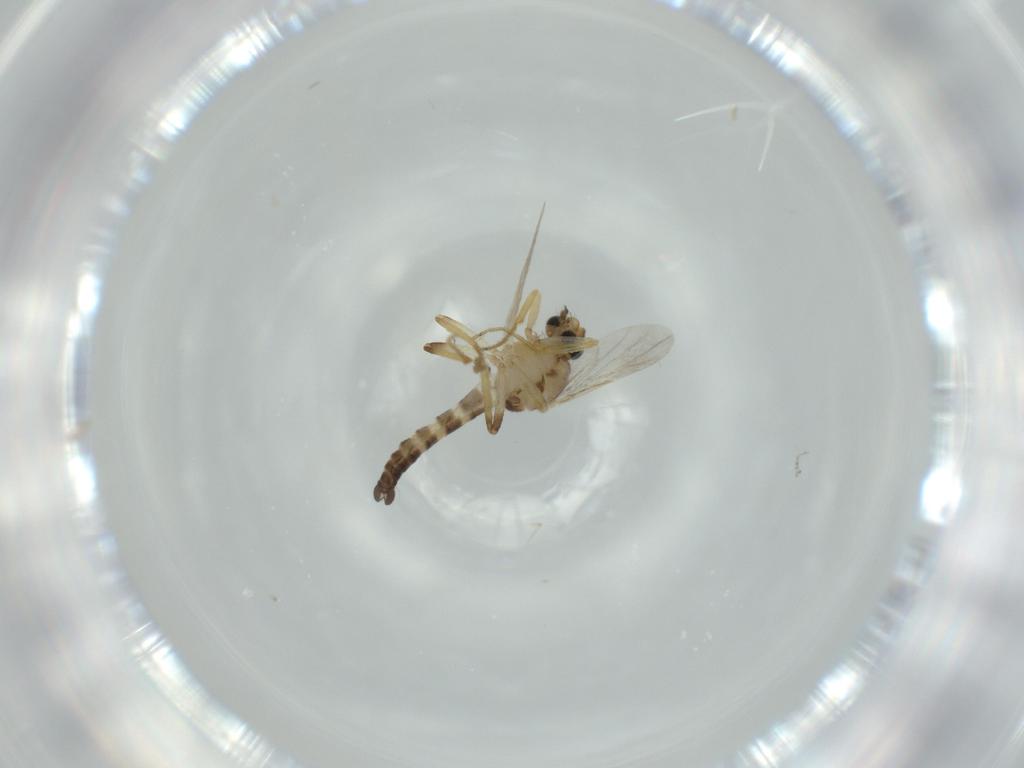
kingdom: Animalia
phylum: Arthropoda
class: Insecta
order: Diptera
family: Ceratopogonidae
